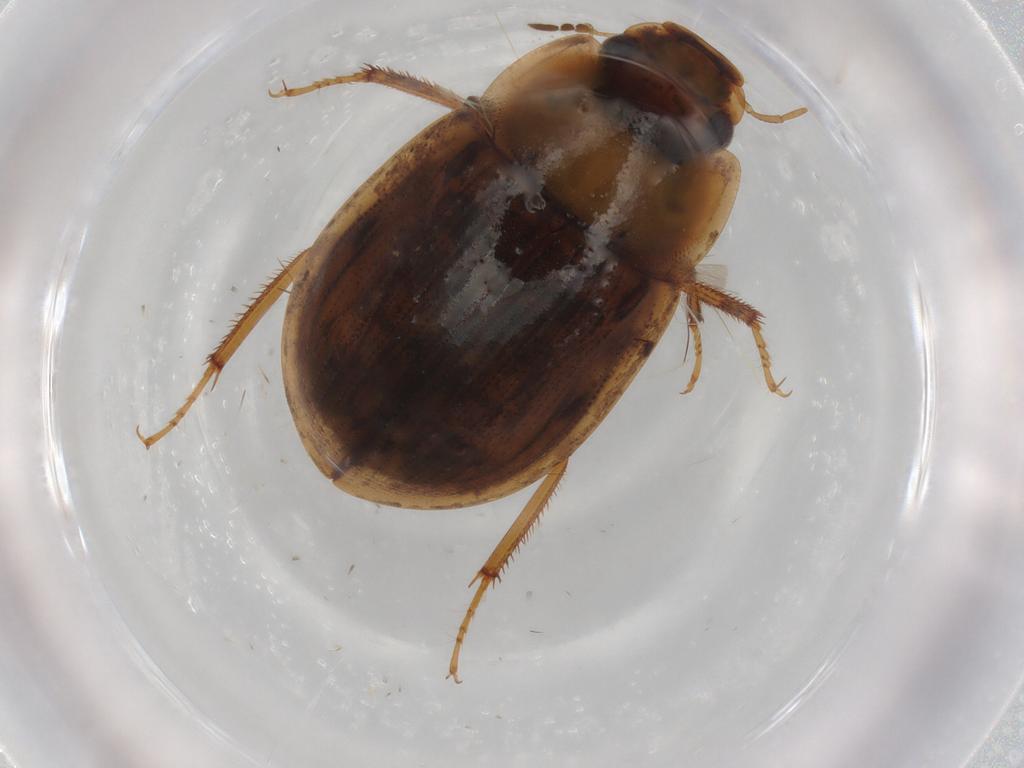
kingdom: Animalia
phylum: Arthropoda
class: Insecta
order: Coleoptera
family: Hydrophilidae
